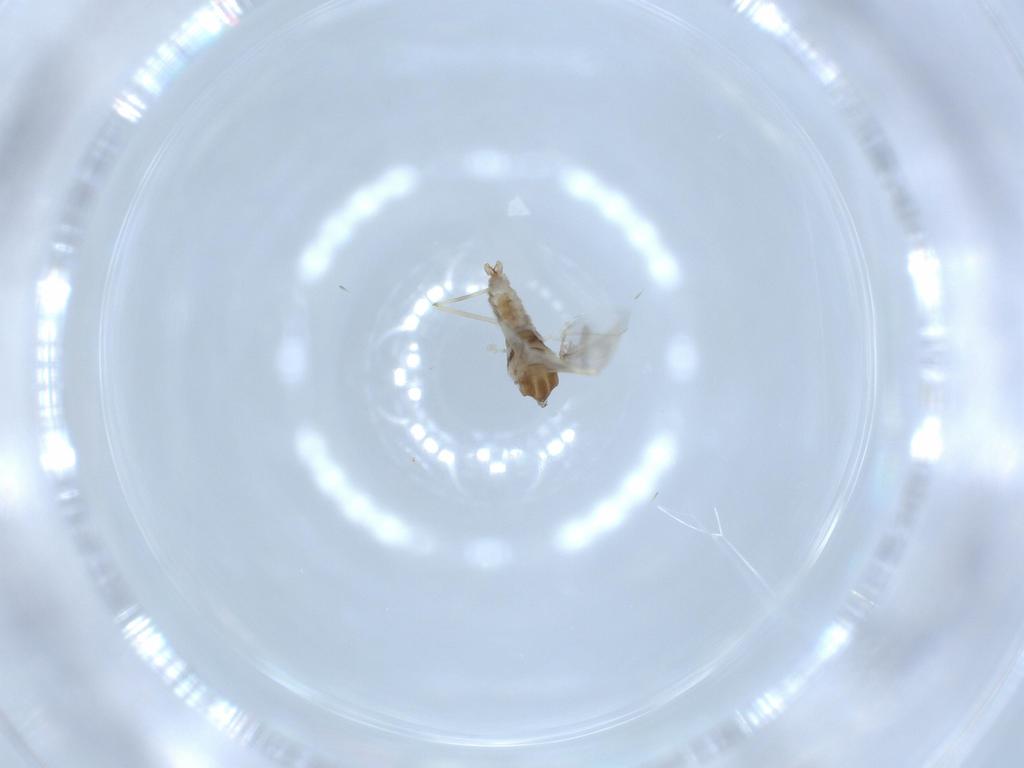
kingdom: Animalia
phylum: Arthropoda
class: Insecta
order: Diptera
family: Cecidomyiidae
